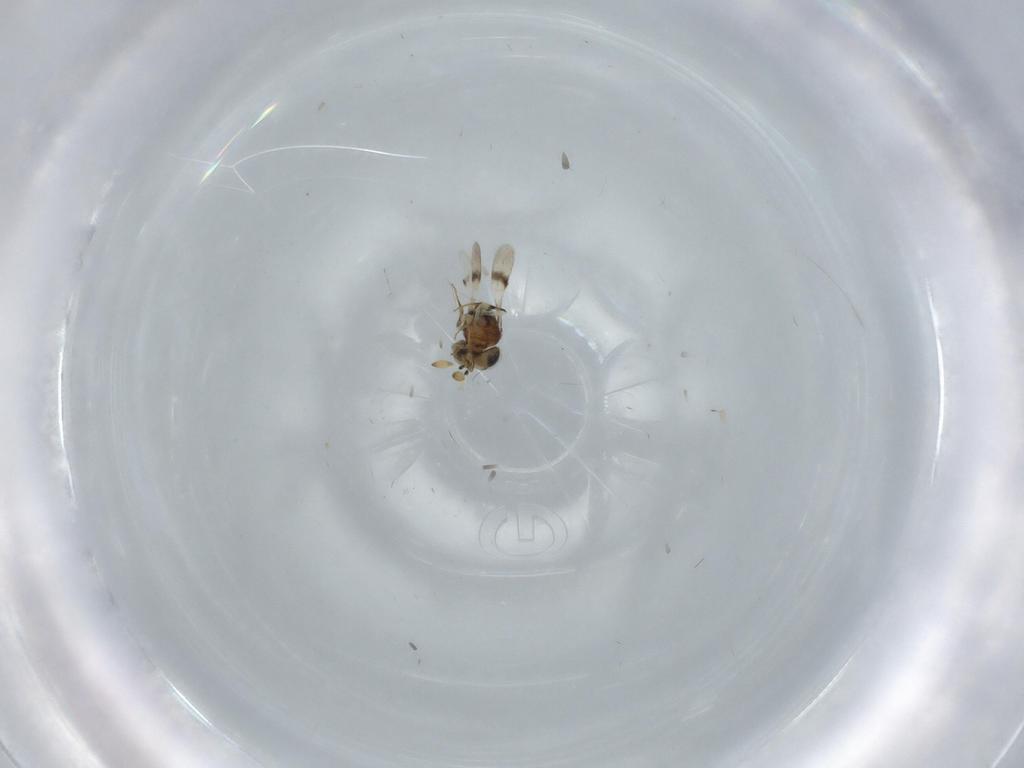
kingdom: Animalia
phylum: Arthropoda
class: Insecta
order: Hymenoptera
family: Scelionidae
